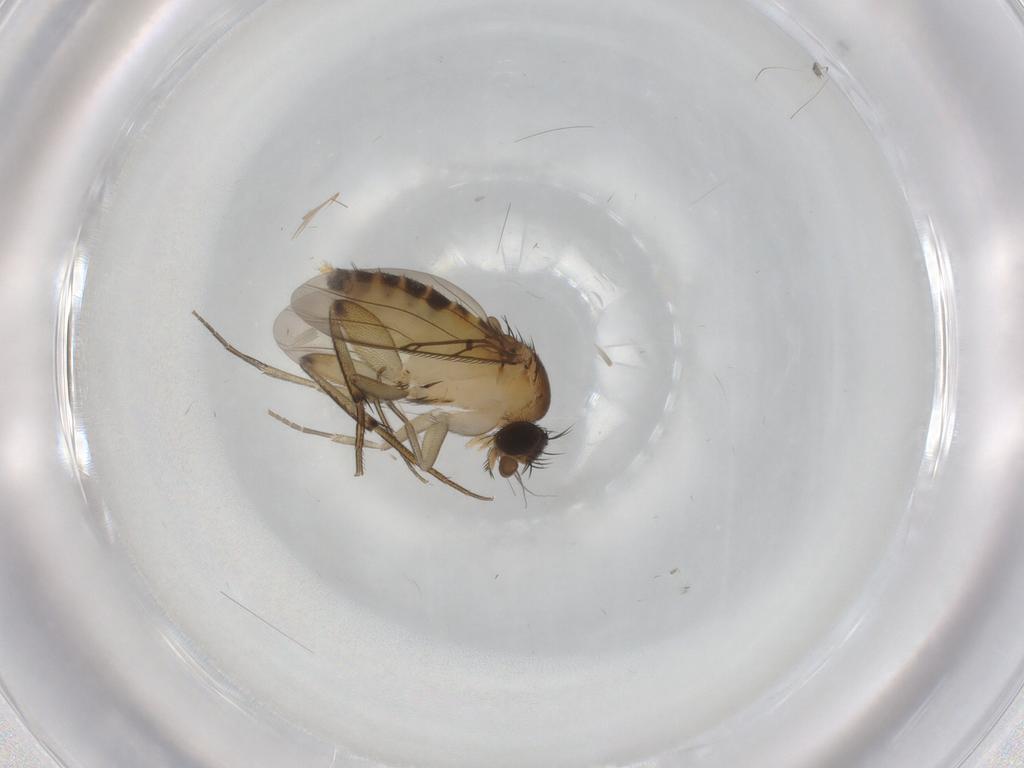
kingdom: Animalia
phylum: Arthropoda
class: Insecta
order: Diptera
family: Phoridae
